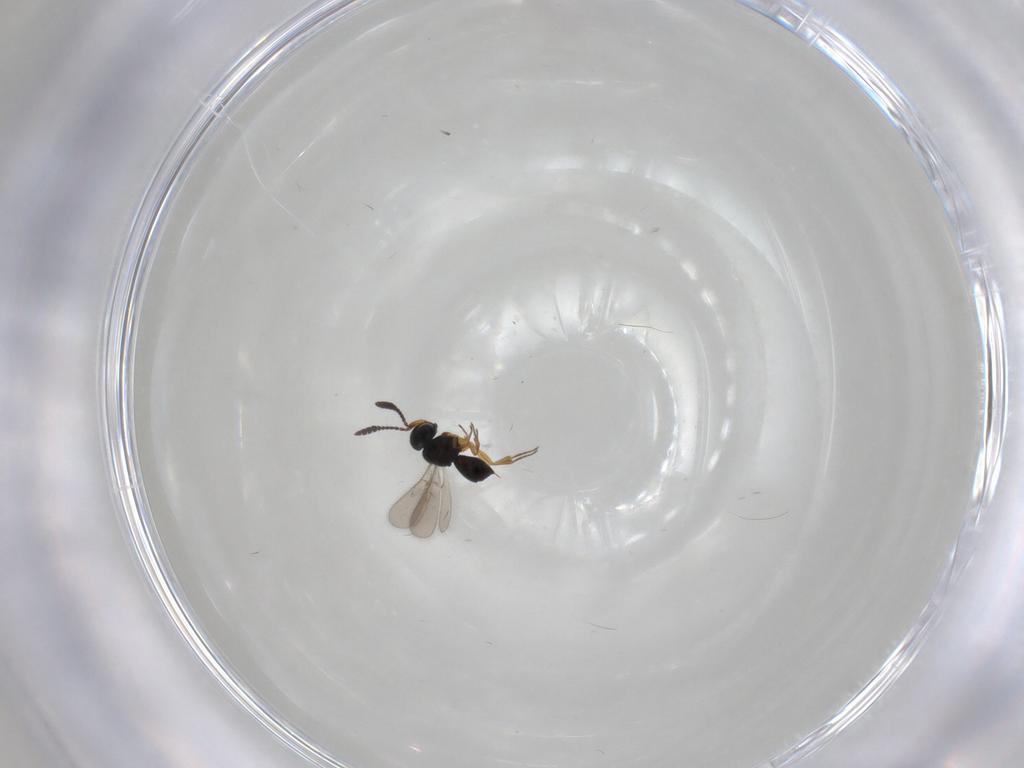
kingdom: Animalia
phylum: Arthropoda
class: Insecta
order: Hymenoptera
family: Scelionidae
